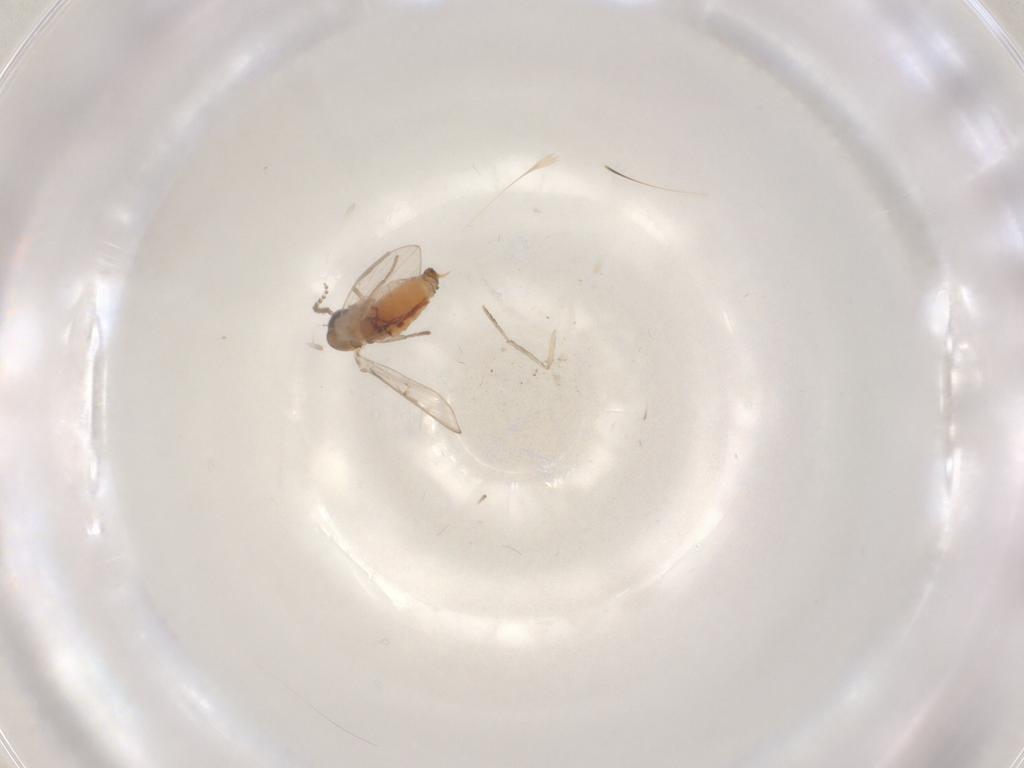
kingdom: Animalia
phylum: Arthropoda
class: Insecta
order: Diptera
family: Psychodidae
